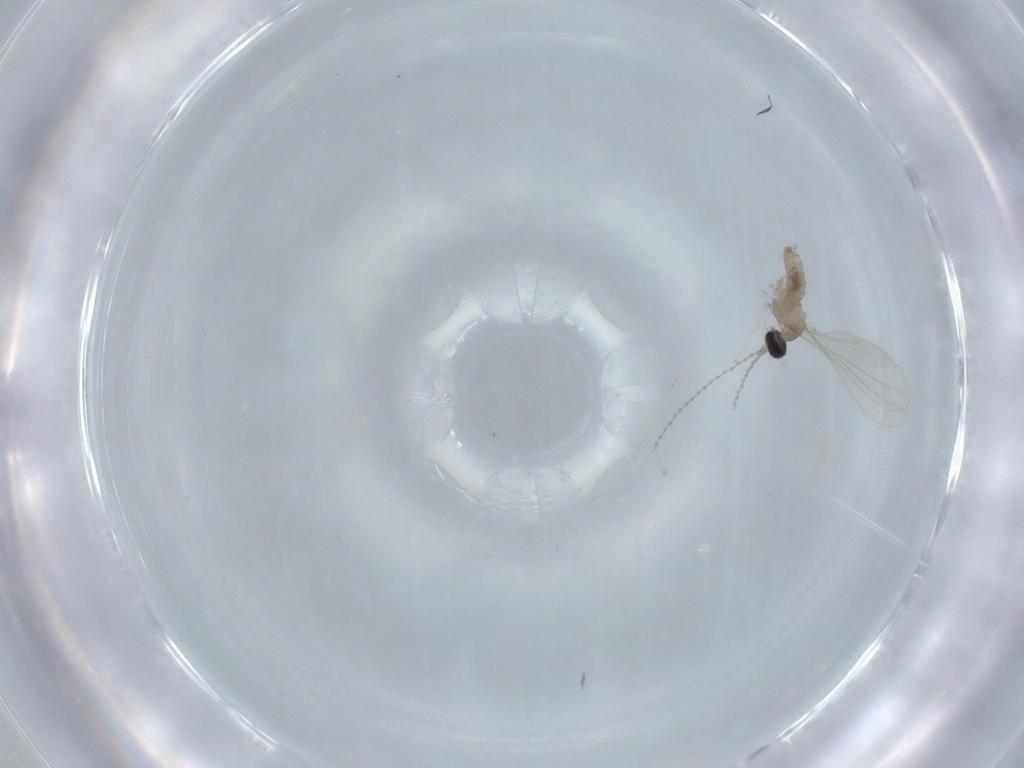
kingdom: Animalia
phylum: Arthropoda
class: Insecta
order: Diptera
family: Cecidomyiidae
